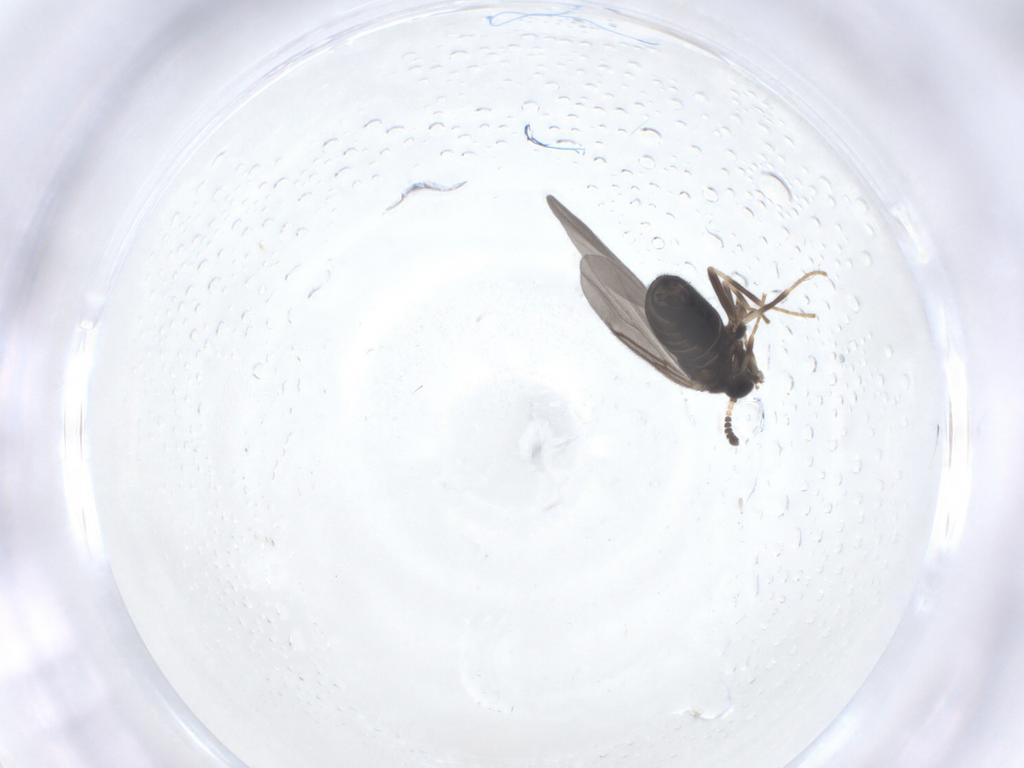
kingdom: Animalia
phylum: Arthropoda
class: Insecta
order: Diptera
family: Scatopsidae
